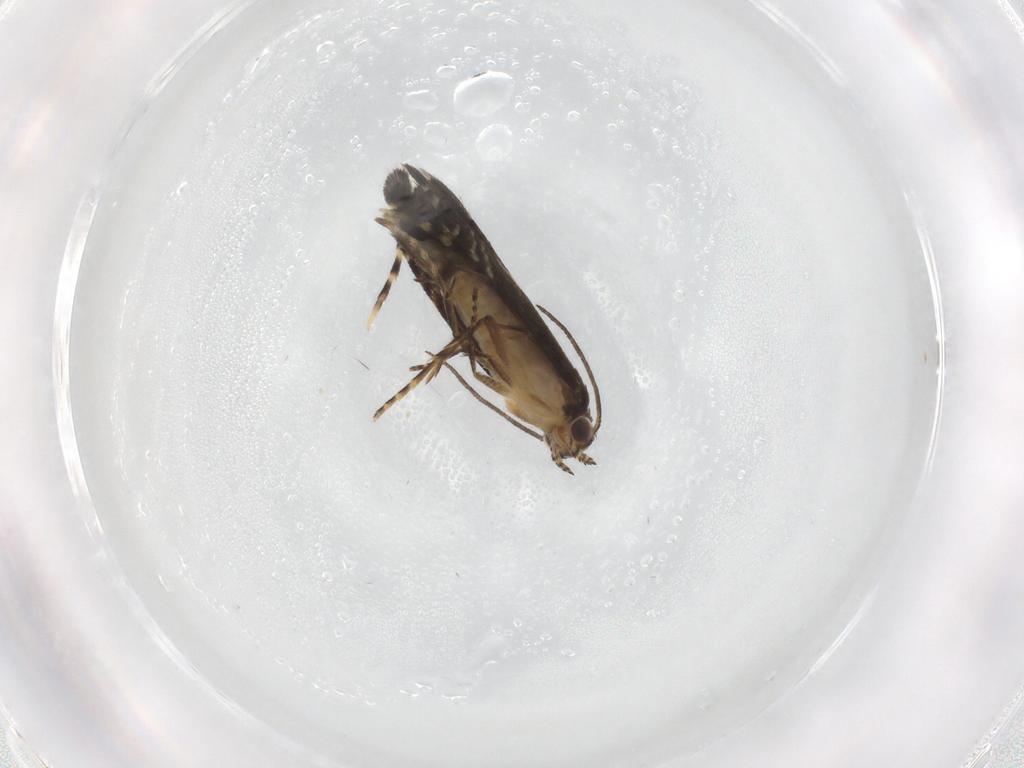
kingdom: Animalia
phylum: Arthropoda
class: Insecta
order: Lepidoptera
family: Glyphipterigidae
